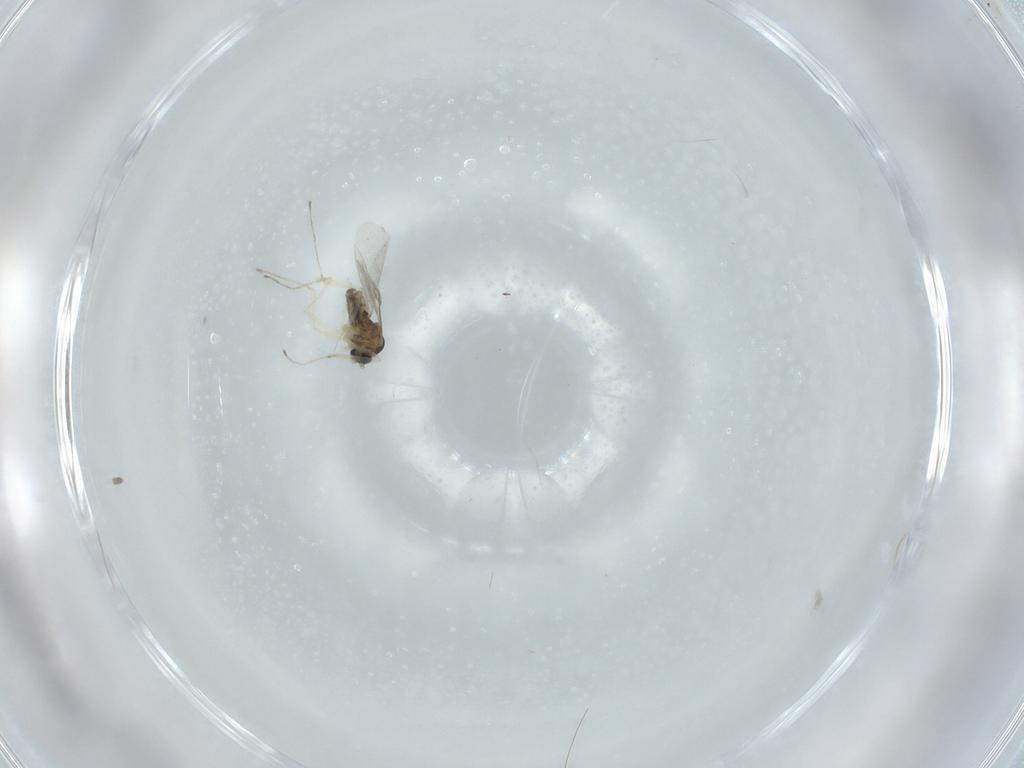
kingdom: Animalia
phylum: Arthropoda
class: Insecta
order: Diptera
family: Cecidomyiidae
